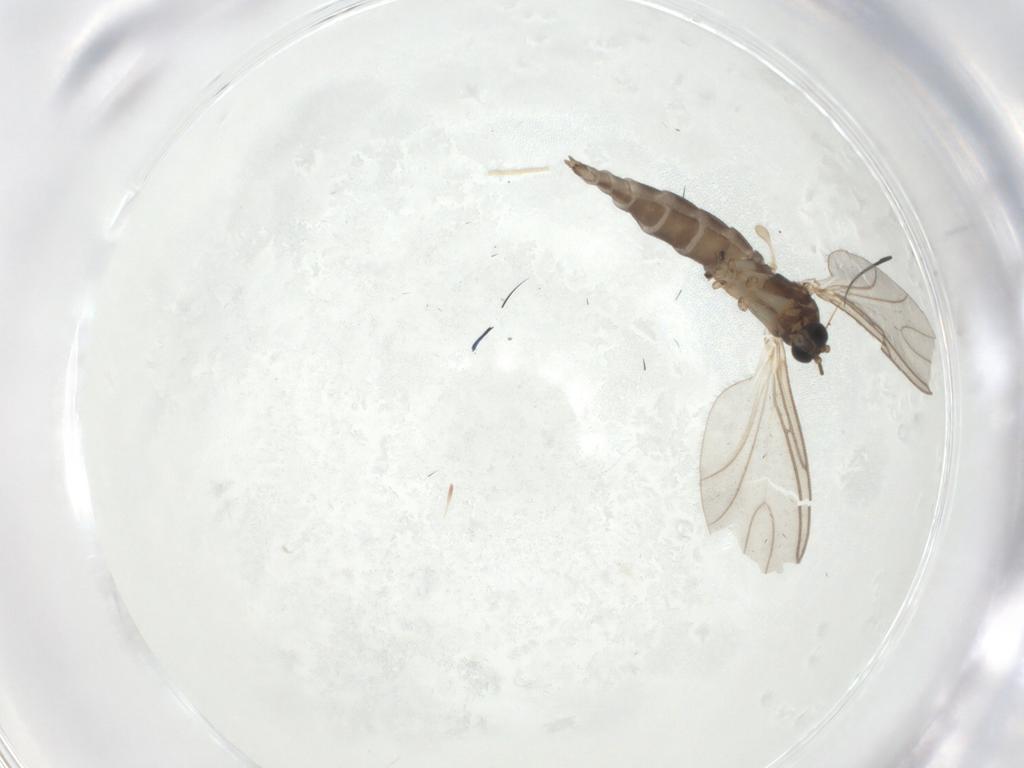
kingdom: Animalia
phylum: Arthropoda
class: Insecta
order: Diptera
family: Sciaridae
